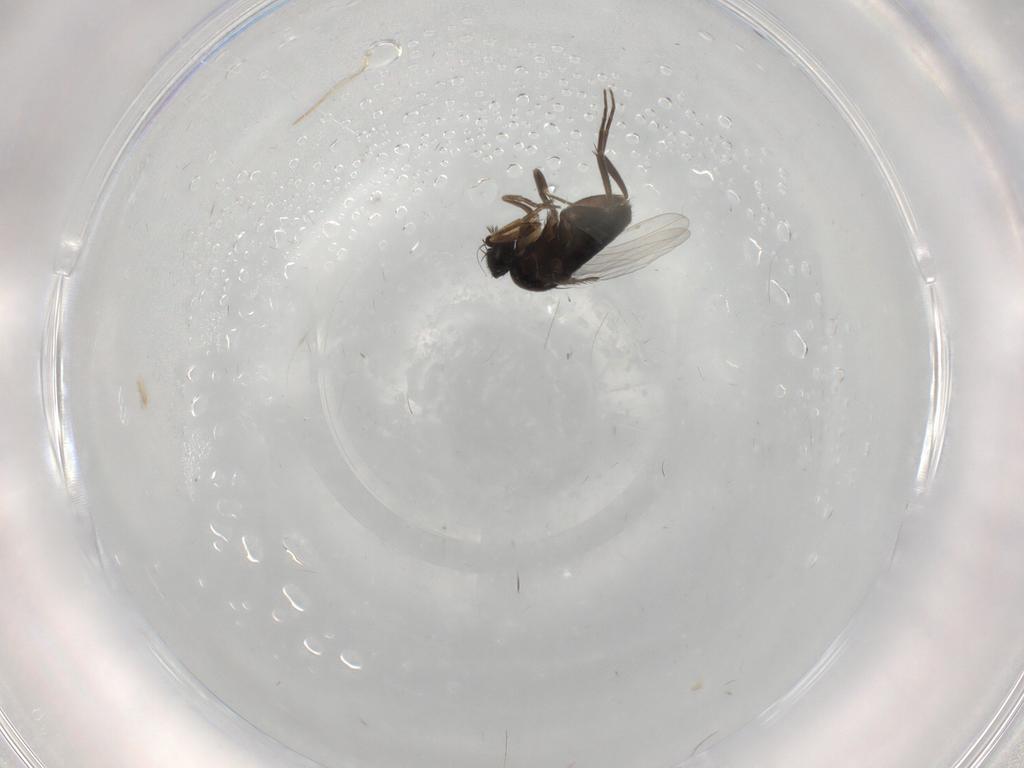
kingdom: Animalia
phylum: Arthropoda
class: Insecta
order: Diptera
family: Phoridae
